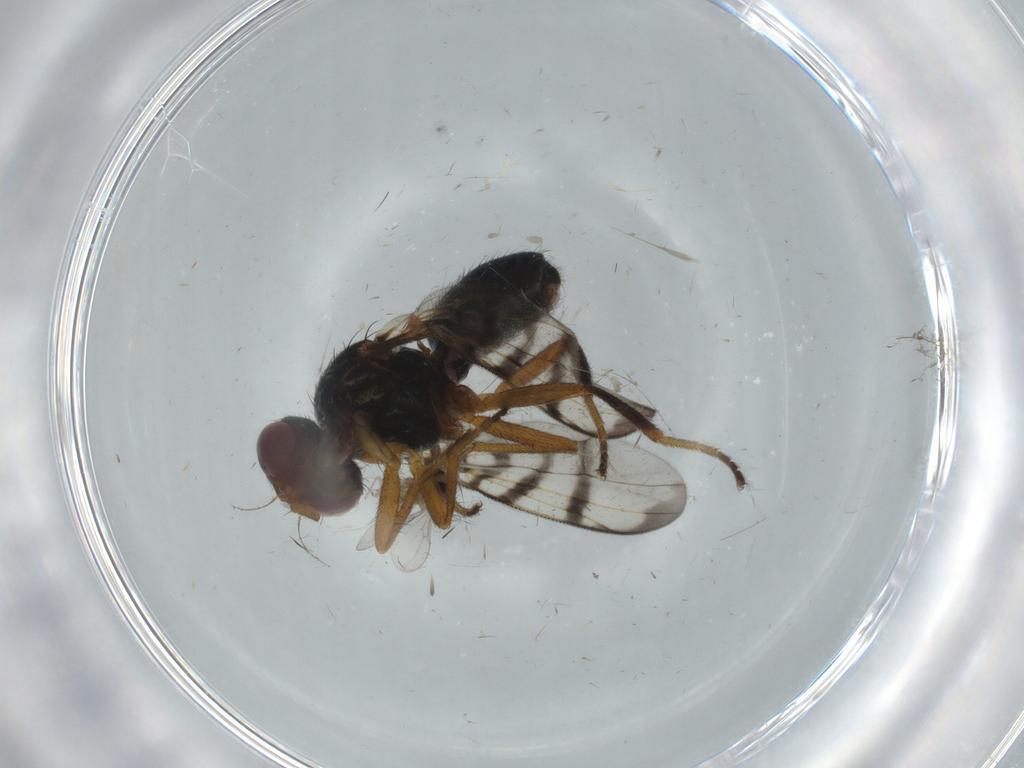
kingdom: Animalia
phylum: Arthropoda
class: Insecta
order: Diptera
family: Platystomatidae
